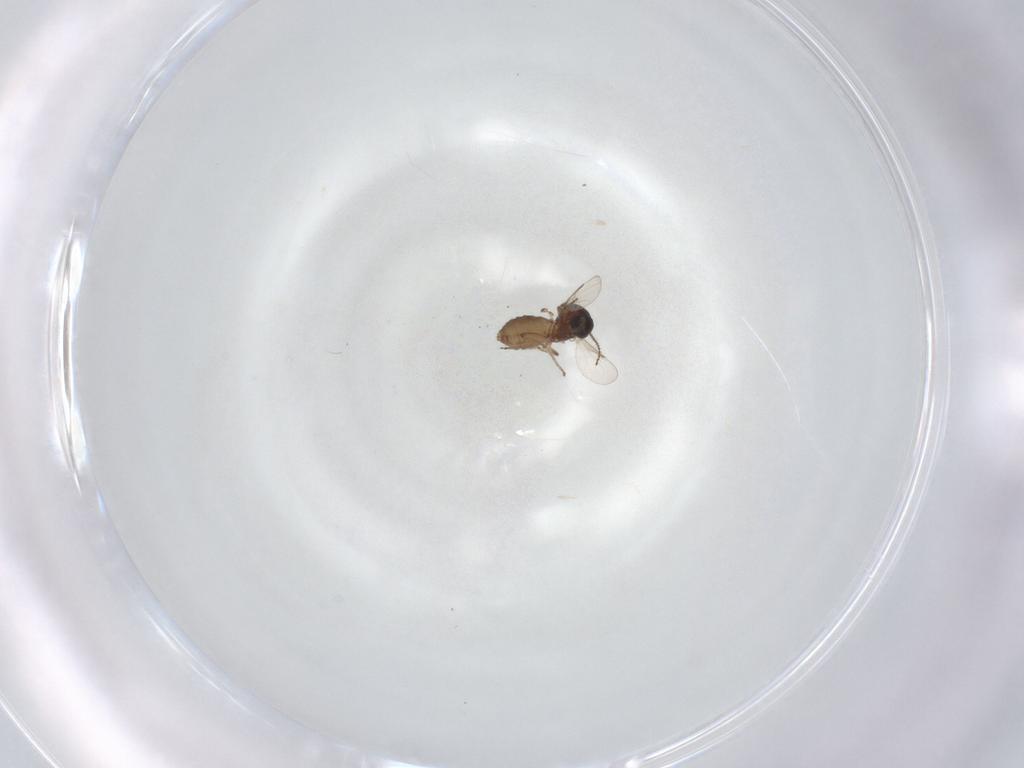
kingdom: Animalia
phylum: Arthropoda
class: Insecta
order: Diptera
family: Ceratopogonidae
